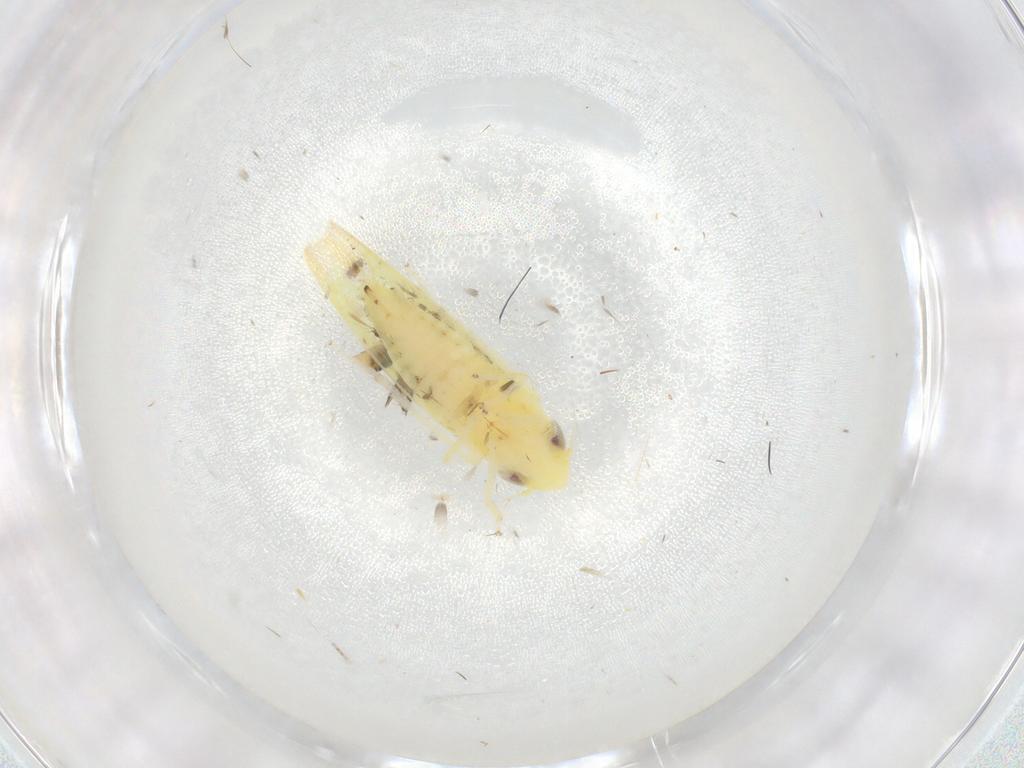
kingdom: Animalia
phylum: Arthropoda
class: Insecta
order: Hemiptera
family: Cicadellidae
